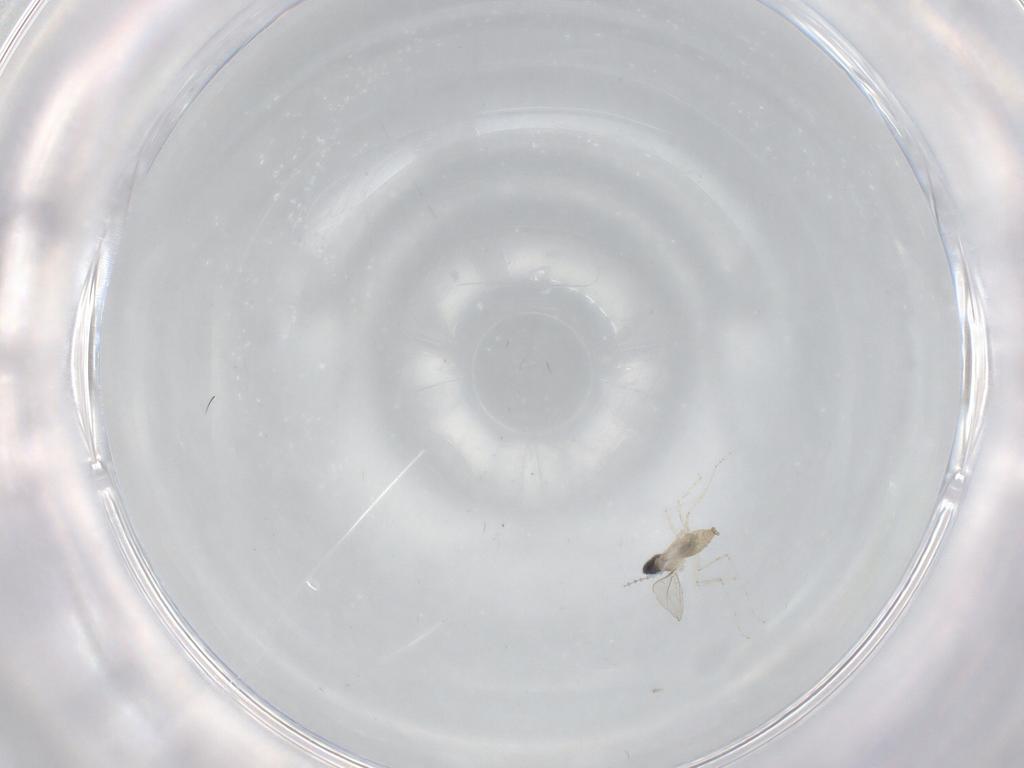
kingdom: Animalia
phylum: Arthropoda
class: Insecta
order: Diptera
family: Cecidomyiidae
